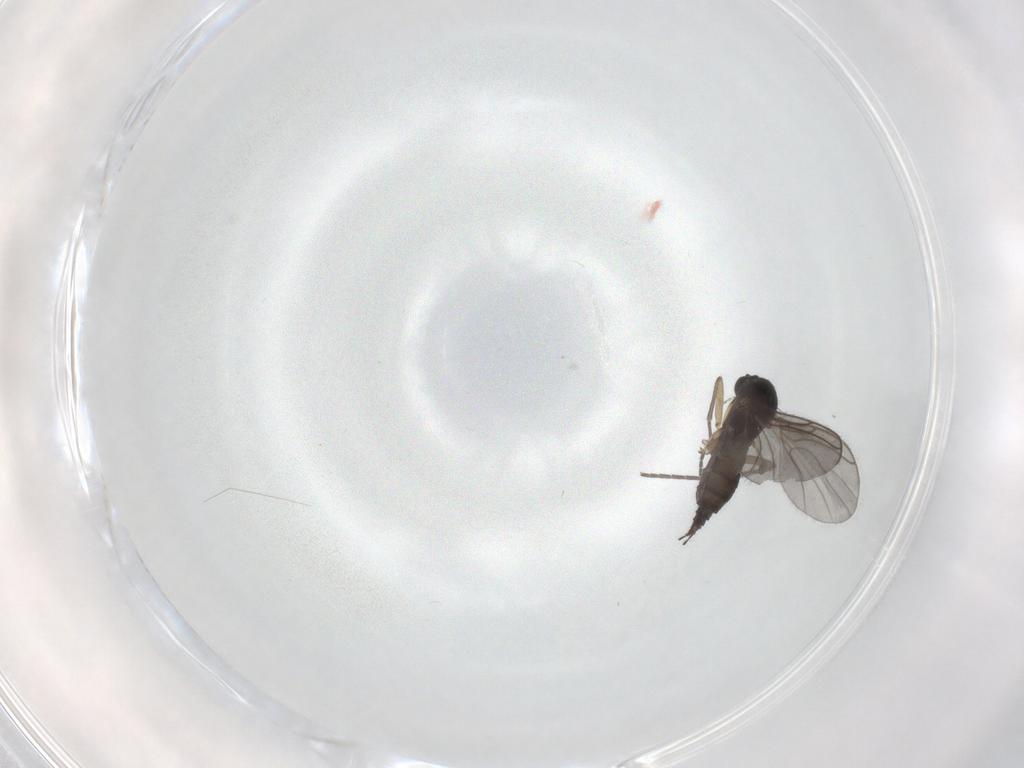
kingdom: Animalia
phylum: Arthropoda
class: Insecta
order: Diptera
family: Sciaridae
